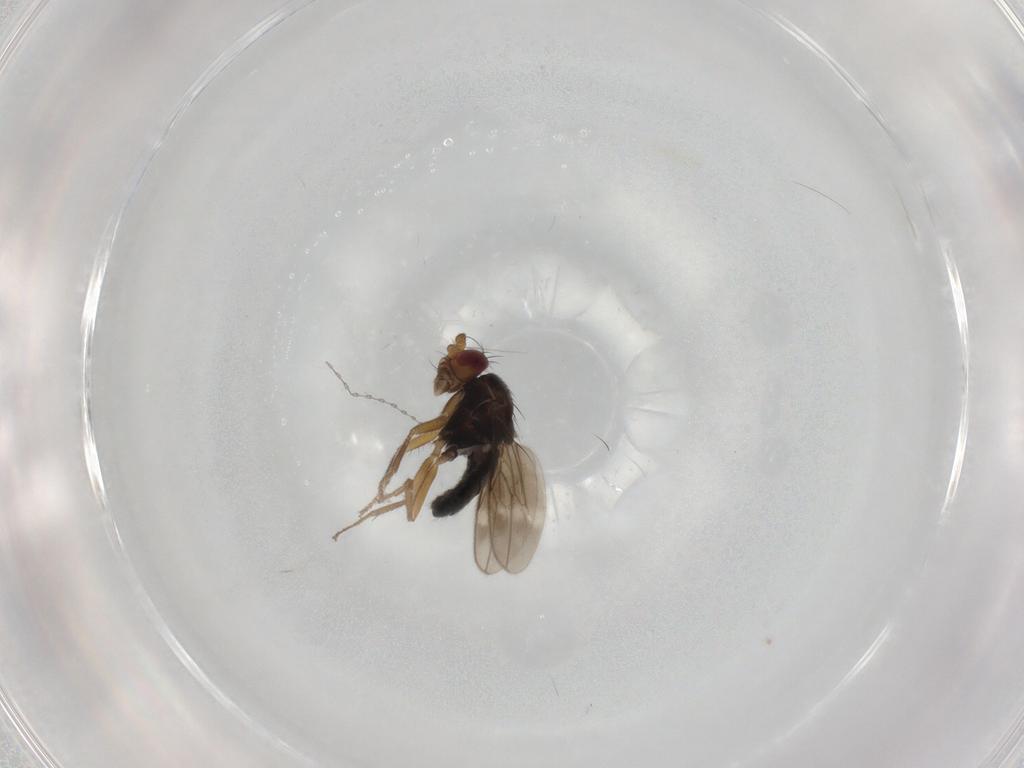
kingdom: Animalia
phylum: Arthropoda
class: Insecta
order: Diptera
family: Sphaeroceridae
